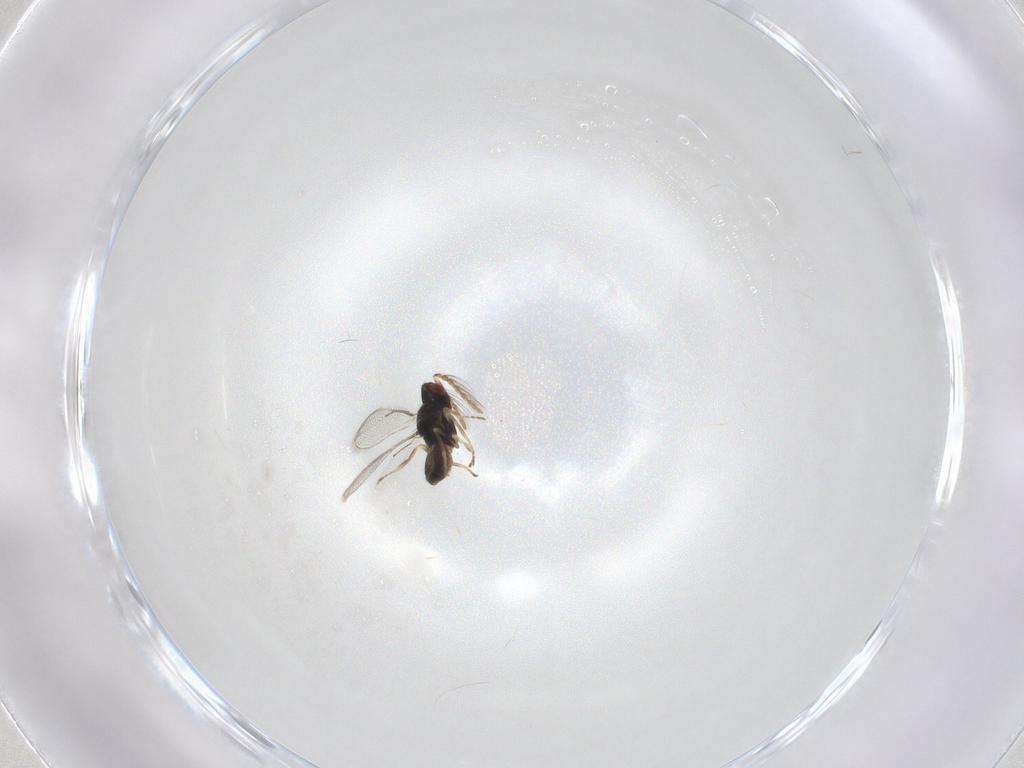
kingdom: Animalia
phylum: Arthropoda
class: Insecta
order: Hymenoptera
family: Eulophidae
